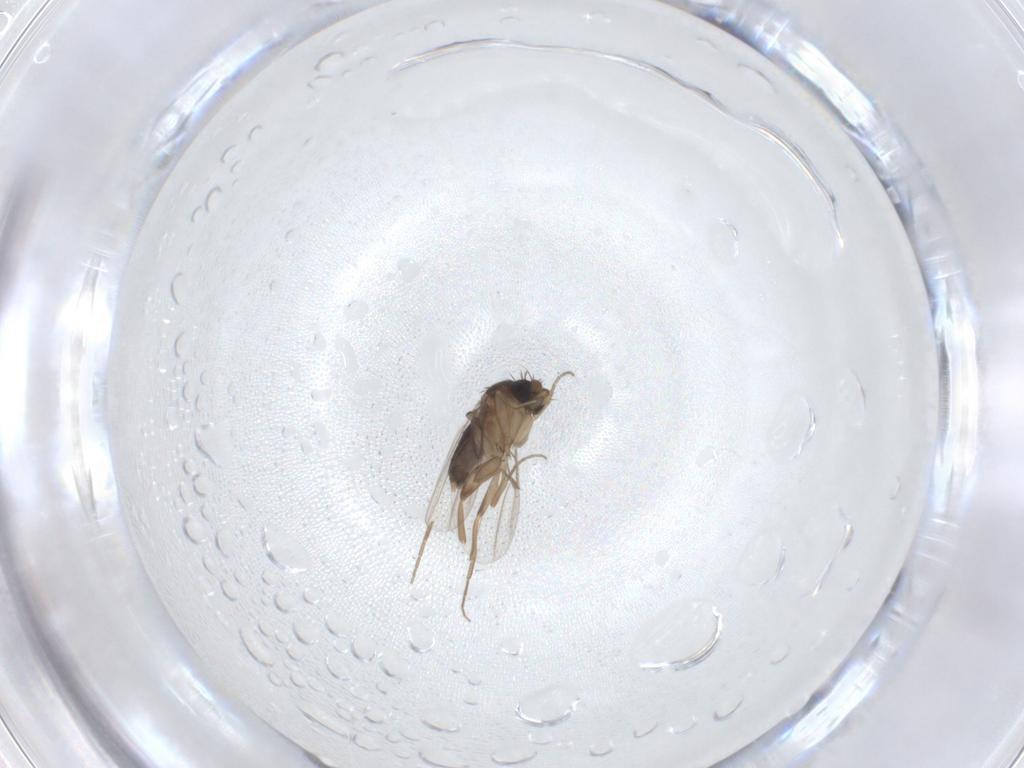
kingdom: Animalia
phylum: Arthropoda
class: Insecta
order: Diptera
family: Phoridae
